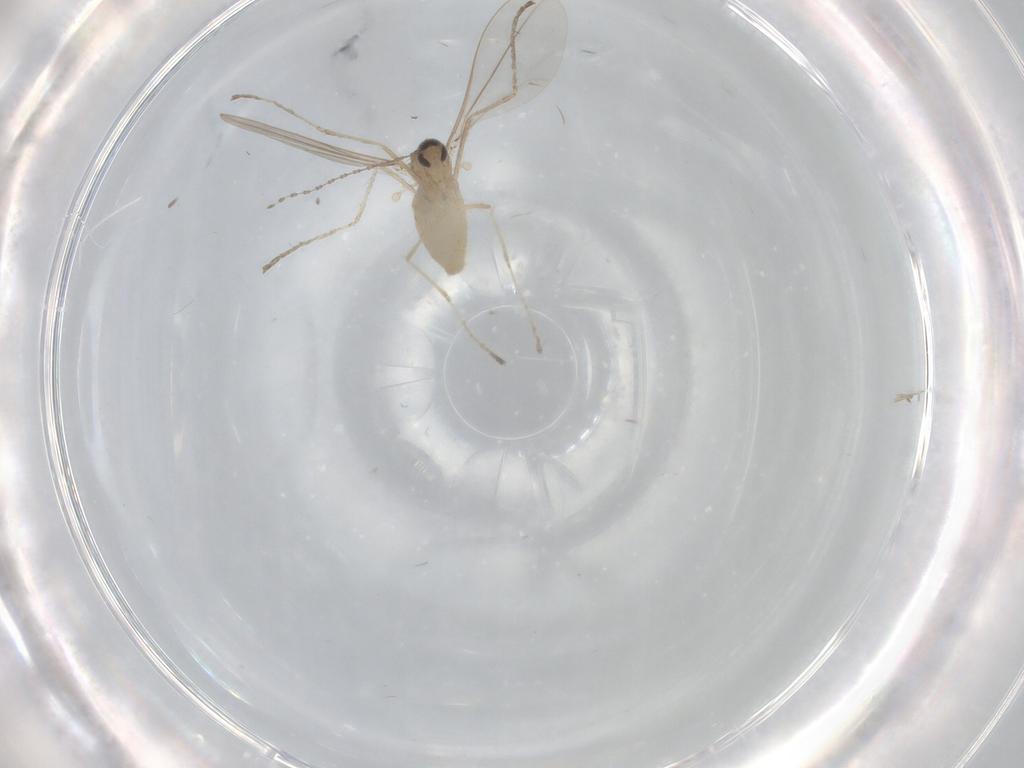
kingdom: Animalia
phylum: Arthropoda
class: Insecta
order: Diptera
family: Cecidomyiidae
